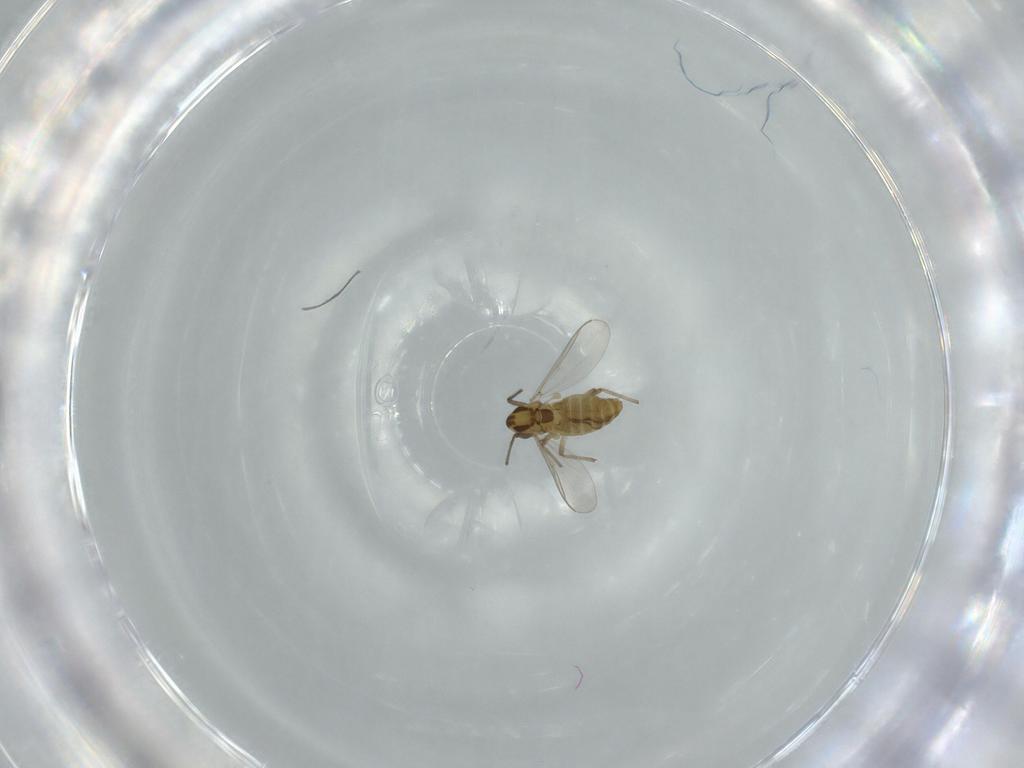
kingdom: Animalia
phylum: Arthropoda
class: Insecta
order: Diptera
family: Chironomidae
